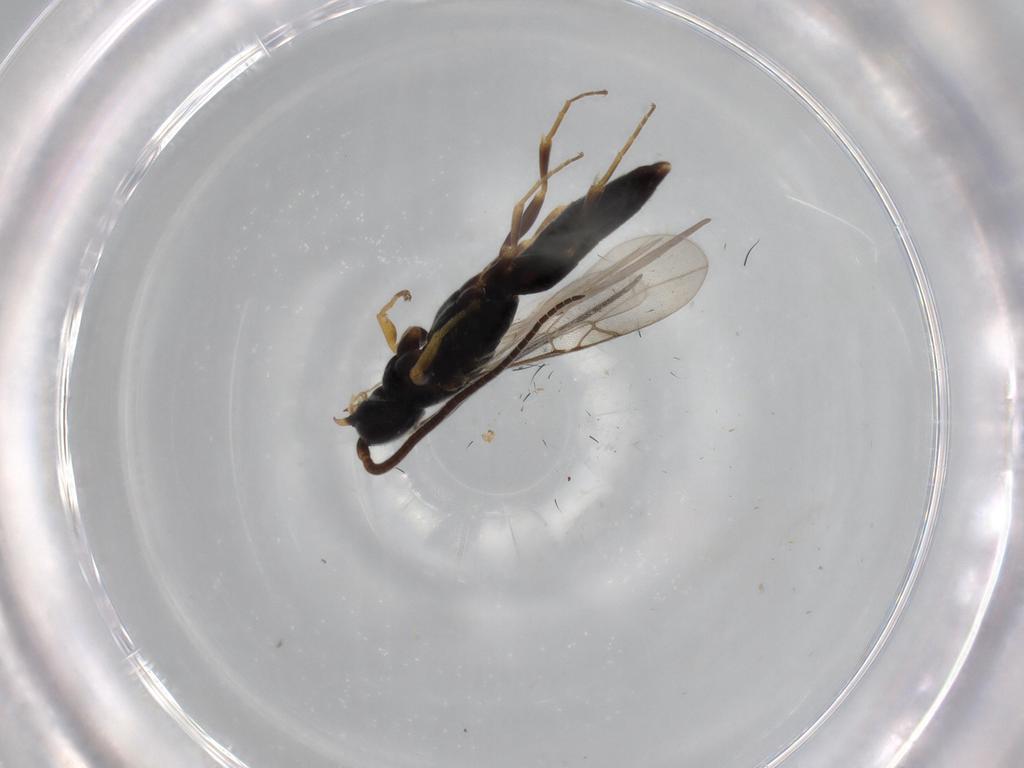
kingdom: Animalia
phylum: Arthropoda
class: Insecta
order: Hymenoptera
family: Sclerogibbidae
